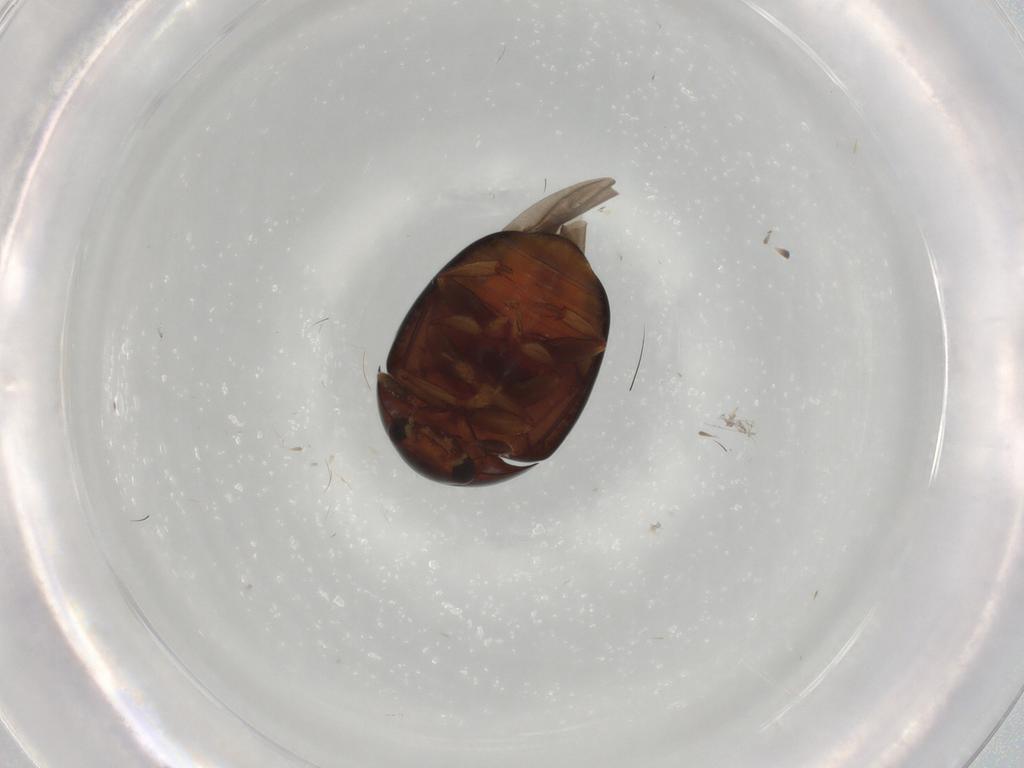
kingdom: Animalia
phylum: Arthropoda
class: Insecta
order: Coleoptera
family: Nitidulidae
